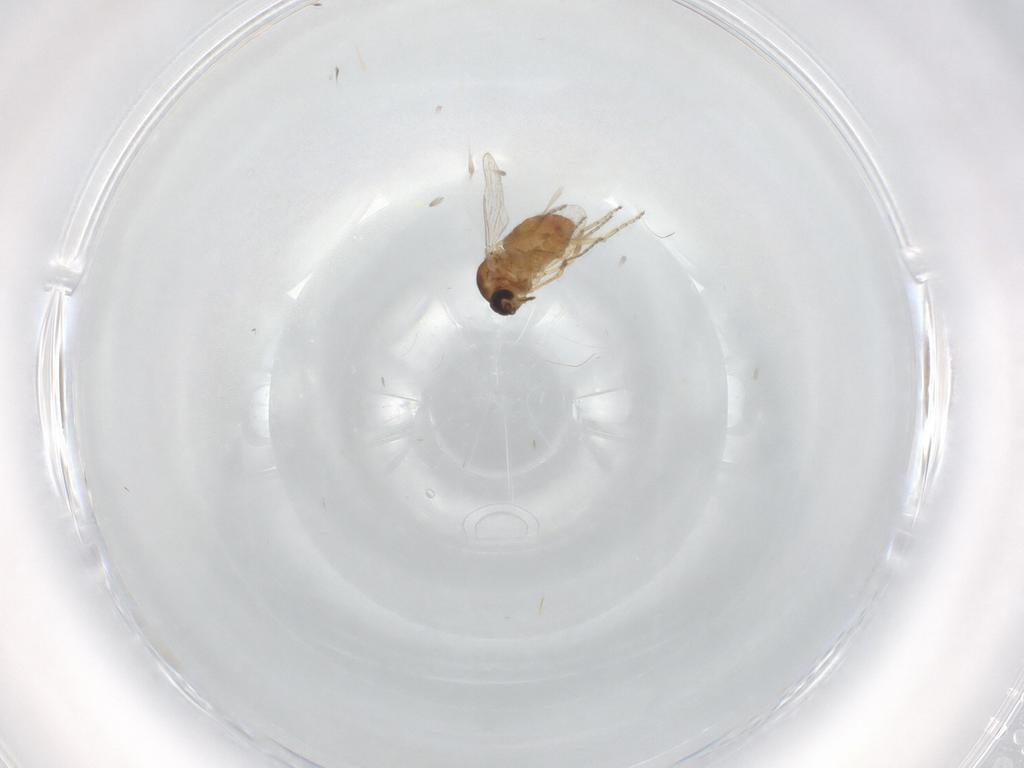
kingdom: Animalia
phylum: Arthropoda
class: Insecta
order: Diptera
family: Ceratopogonidae
